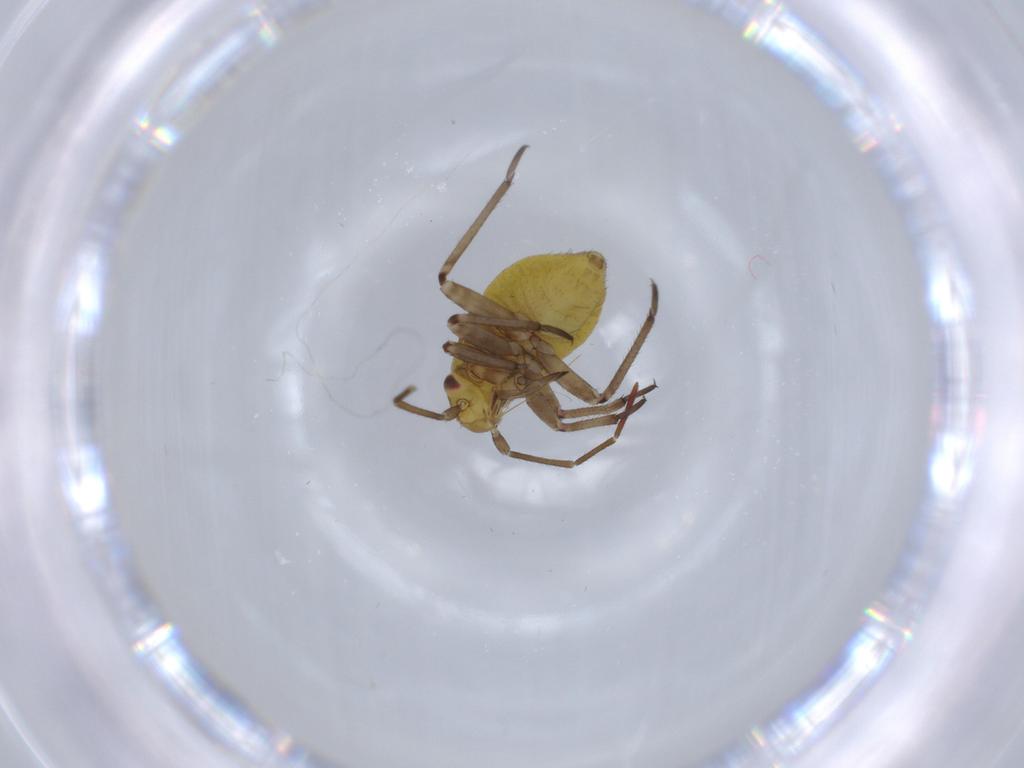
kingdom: Animalia
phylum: Arthropoda
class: Insecta
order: Hemiptera
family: Miridae
